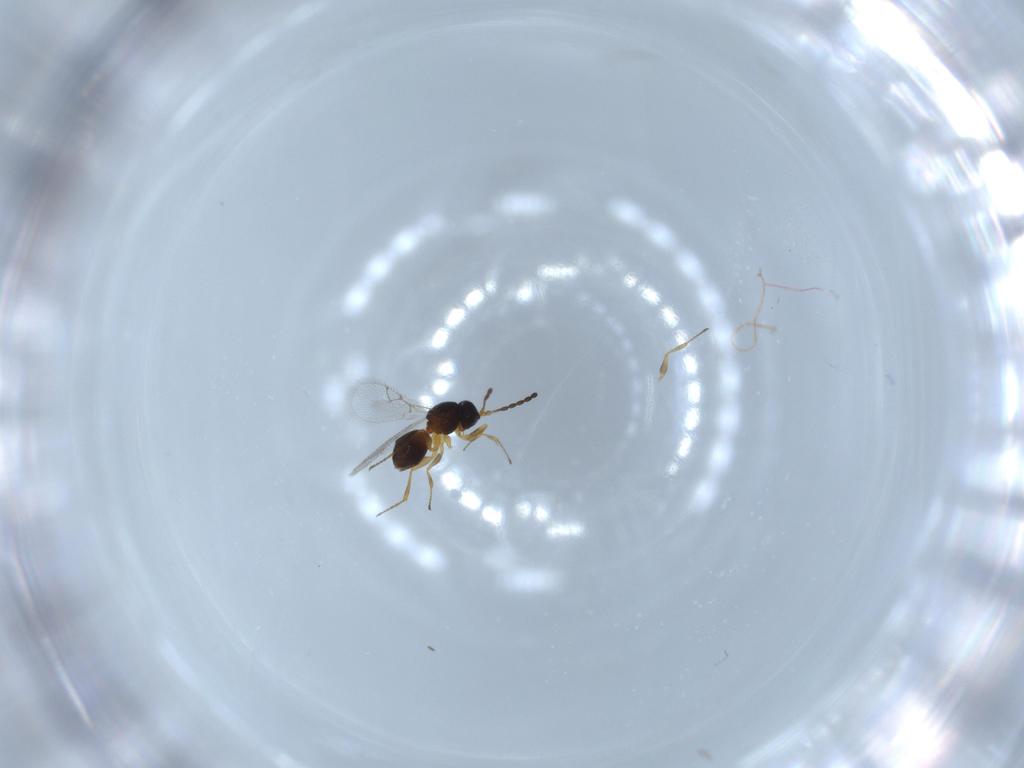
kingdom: Animalia
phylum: Arthropoda
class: Insecta
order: Hymenoptera
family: Figitidae
